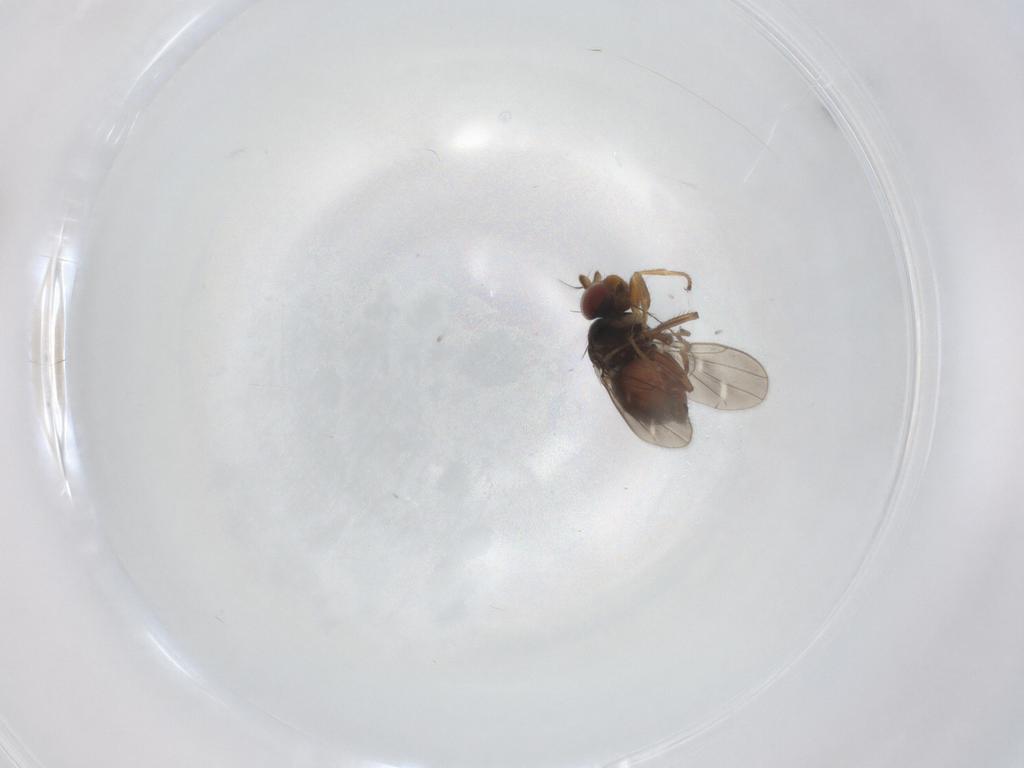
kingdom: Animalia
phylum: Arthropoda
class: Insecta
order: Diptera
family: Ephydridae
